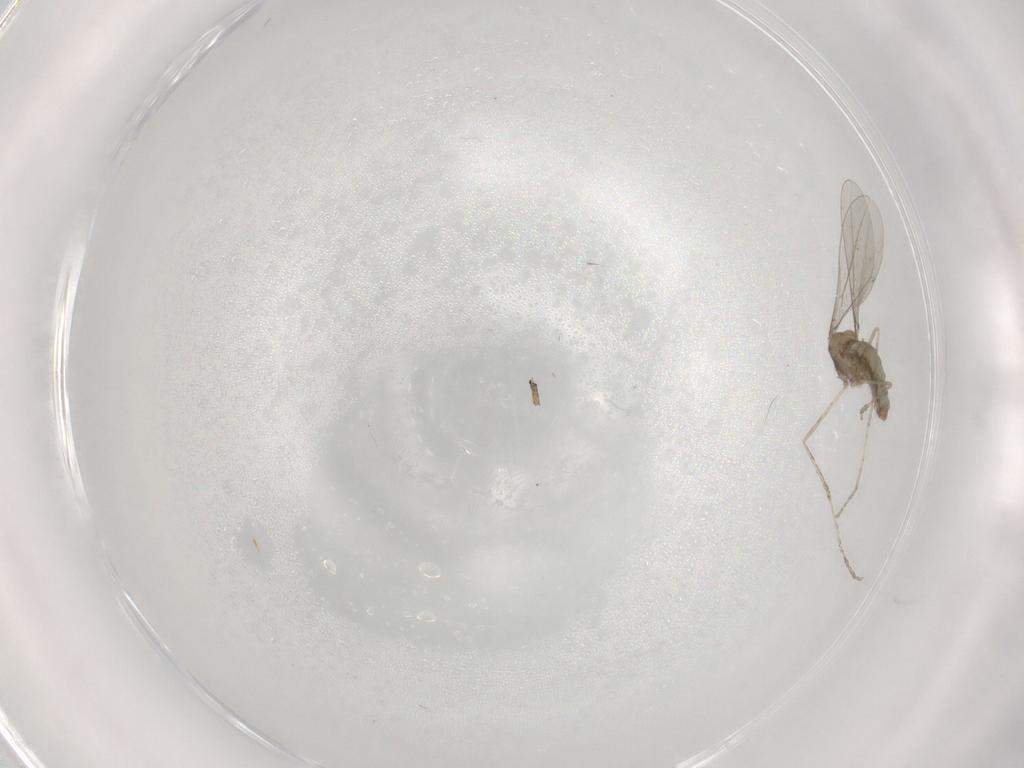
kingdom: Animalia
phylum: Arthropoda
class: Insecta
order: Diptera
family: Cecidomyiidae
